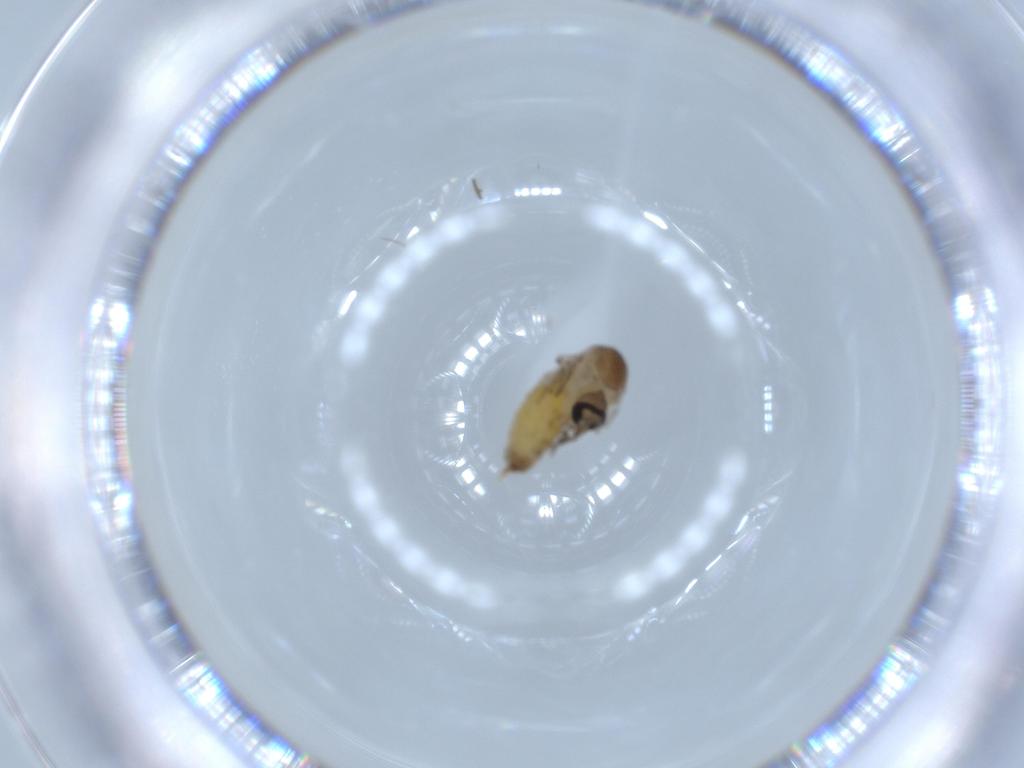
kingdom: Animalia
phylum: Arthropoda
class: Insecta
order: Diptera
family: Psychodidae
